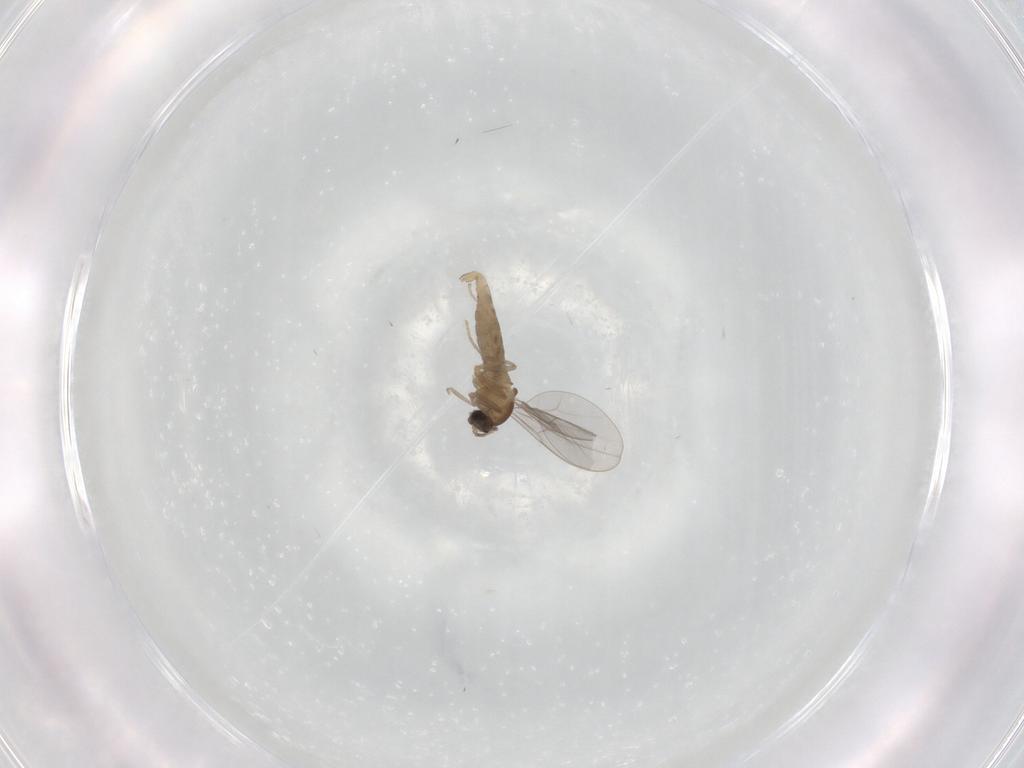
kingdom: Animalia
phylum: Arthropoda
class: Insecta
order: Diptera
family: Cecidomyiidae
